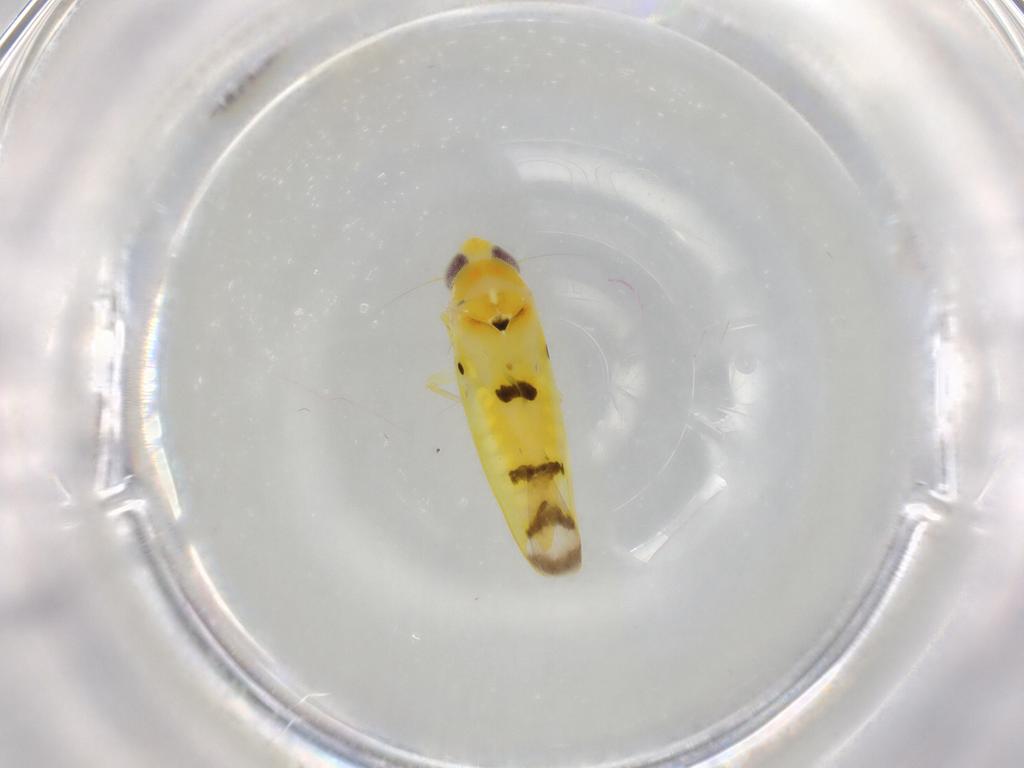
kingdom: Animalia
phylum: Arthropoda
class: Insecta
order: Hemiptera
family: Cicadellidae
